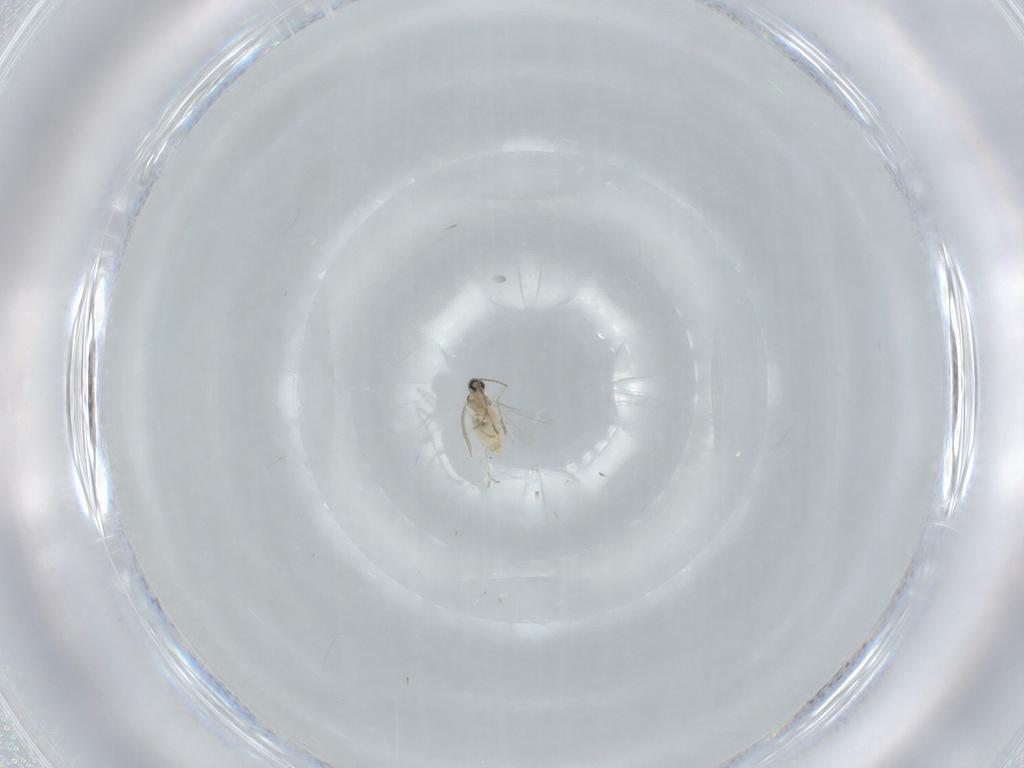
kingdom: Animalia
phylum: Arthropoda
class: Insecta
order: Diptera
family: Cecidomyiidae
